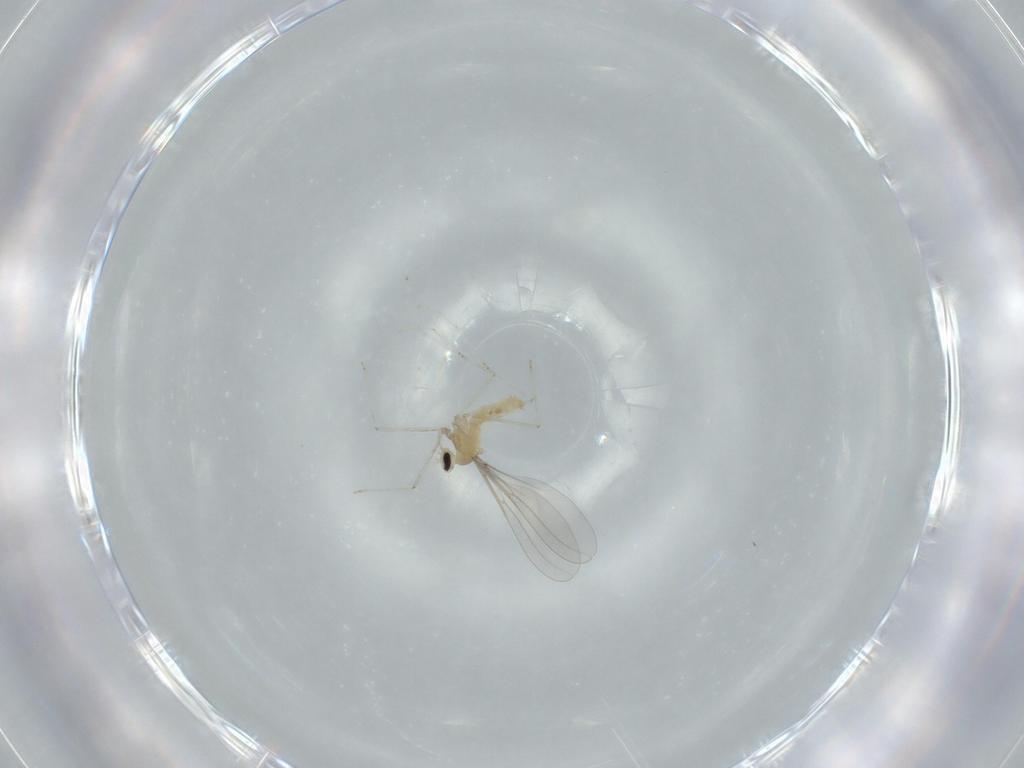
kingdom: Animalia
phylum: Arthropoda
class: Insecta
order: Diptera
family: Cecidomyiidae
